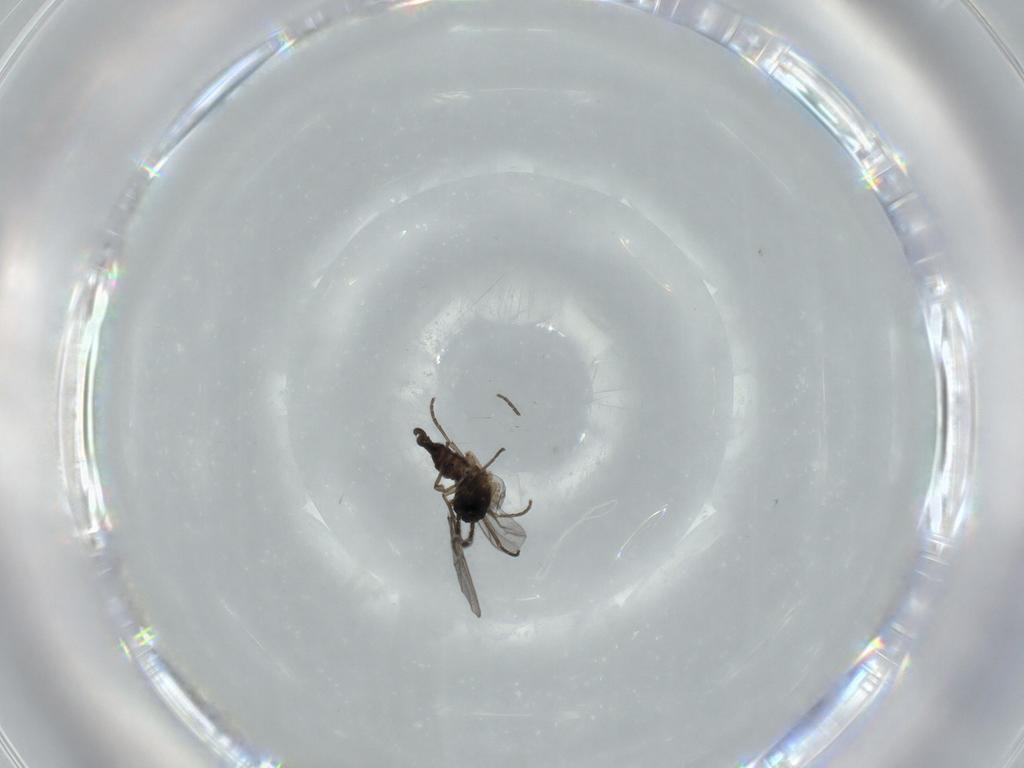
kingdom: Animalia
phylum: Arthropoda
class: Insecta
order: Diptera
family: Sciaridae
